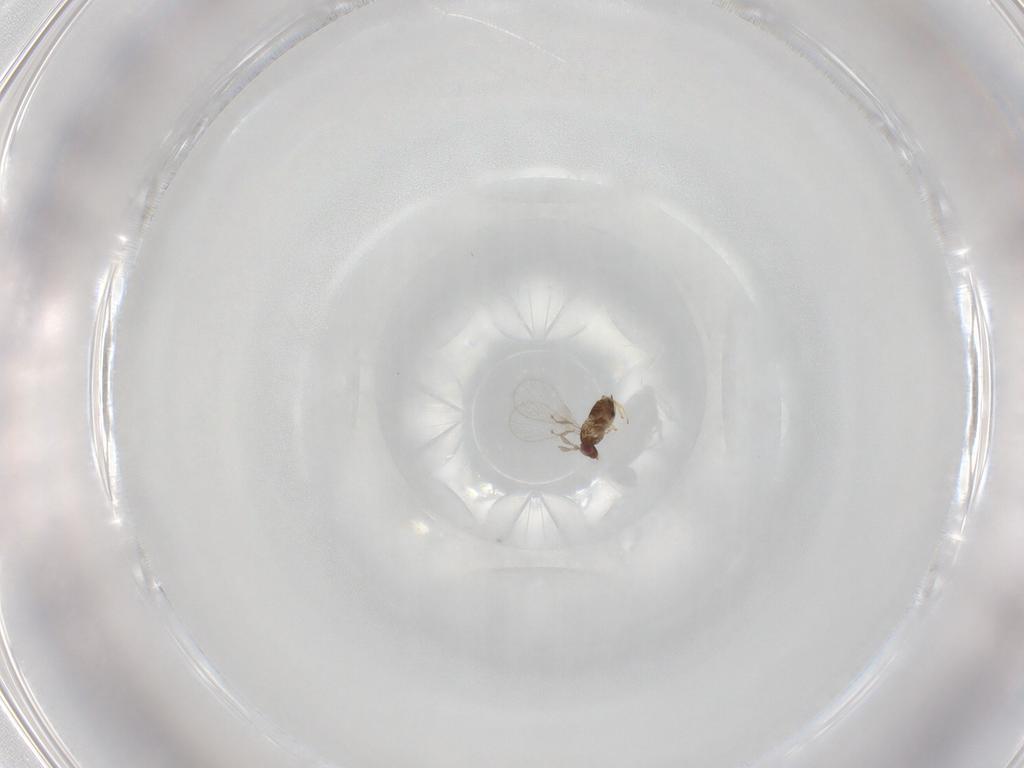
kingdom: Animalia
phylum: Arthropoda
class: Insecta
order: Hymenoptera
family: Trichogrammatidae
